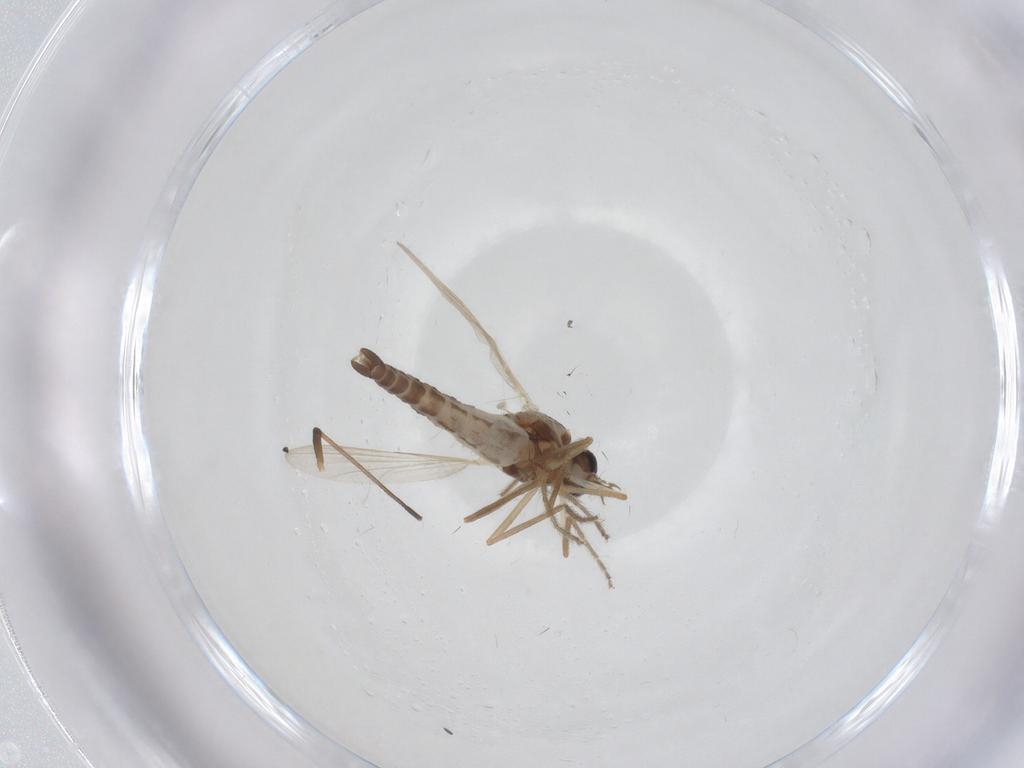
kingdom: Animalia
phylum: Arthropoda
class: Insecta
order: Diptera
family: Ceratopogonidae
